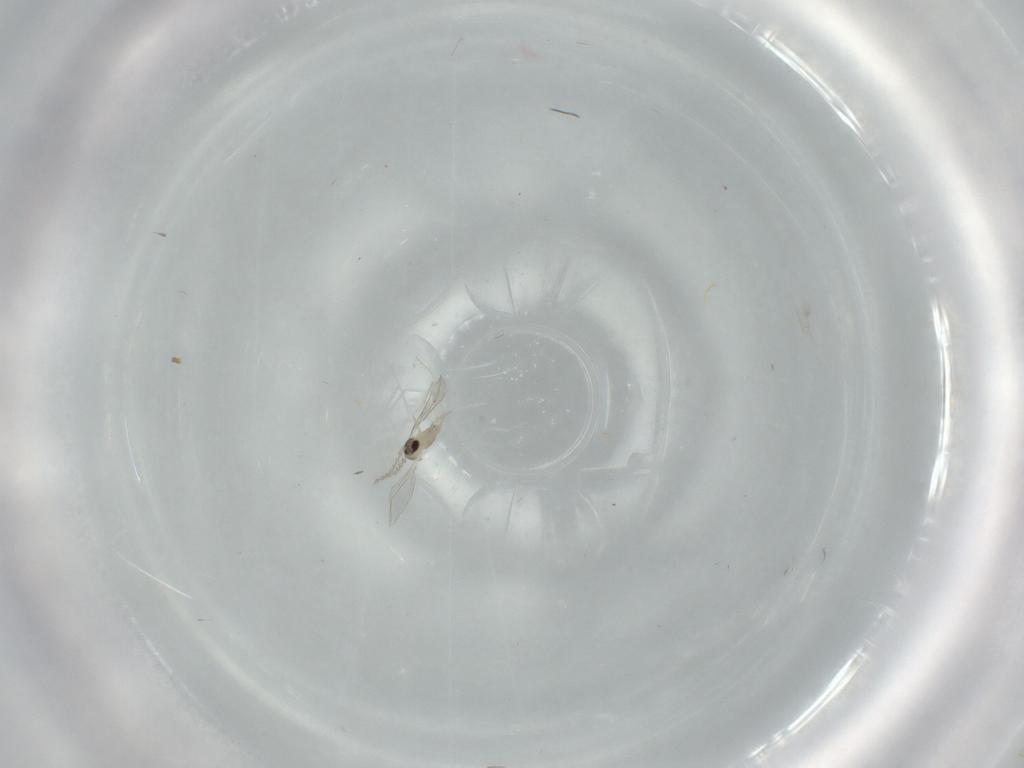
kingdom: Animalia
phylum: Arthropoda
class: Insecta
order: Diptera
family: Cecidomyiidae
